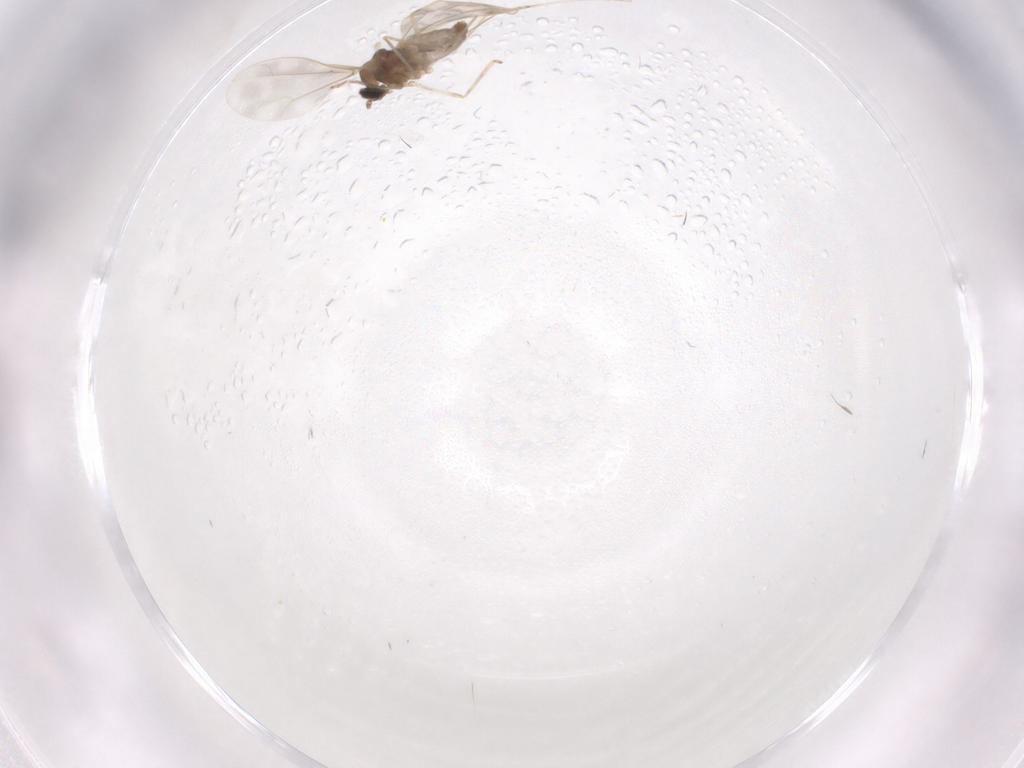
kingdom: Animalia
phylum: Arthropoda
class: Insecta
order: Diptera
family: Cecidomyiidae
